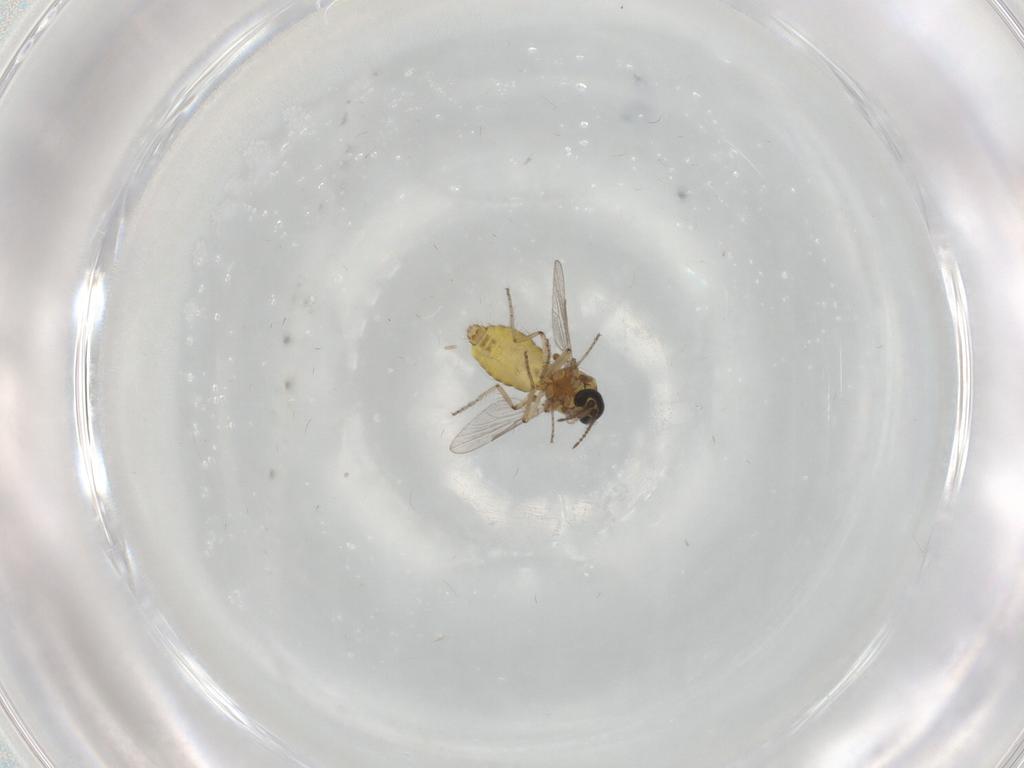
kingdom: Animalia
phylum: Arthropoda
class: Insecta
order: Diptera
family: Ceratopogonidae
